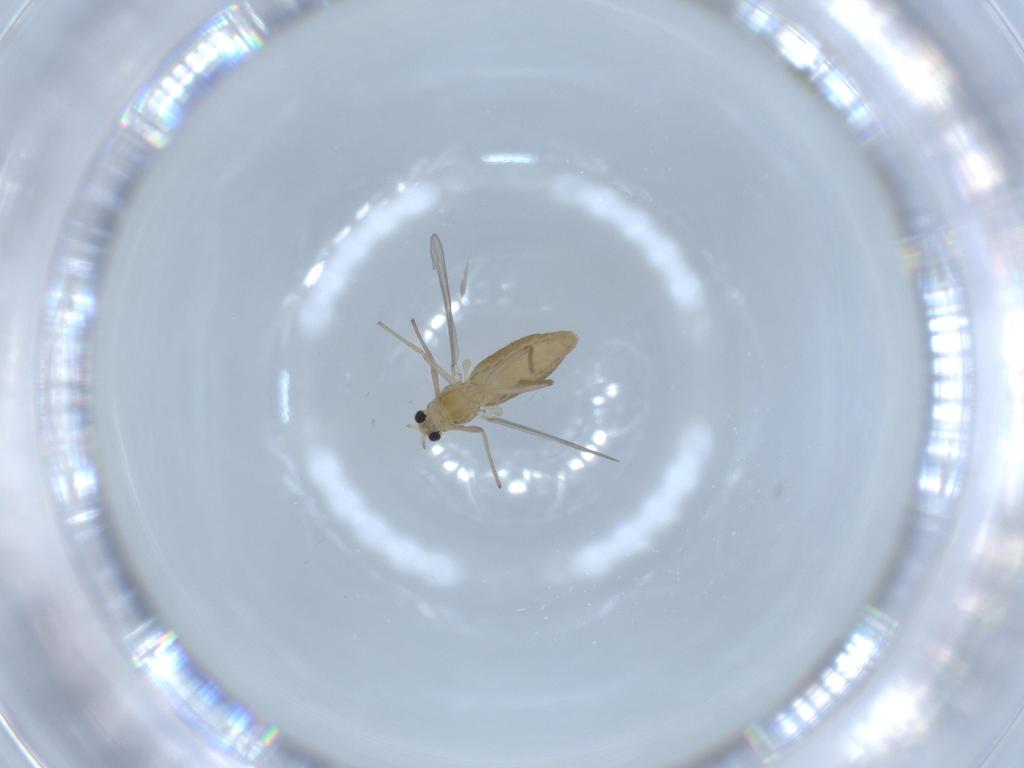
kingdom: Animalia
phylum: Arthropoda
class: Insecta
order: Diptera
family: Chironomidae
